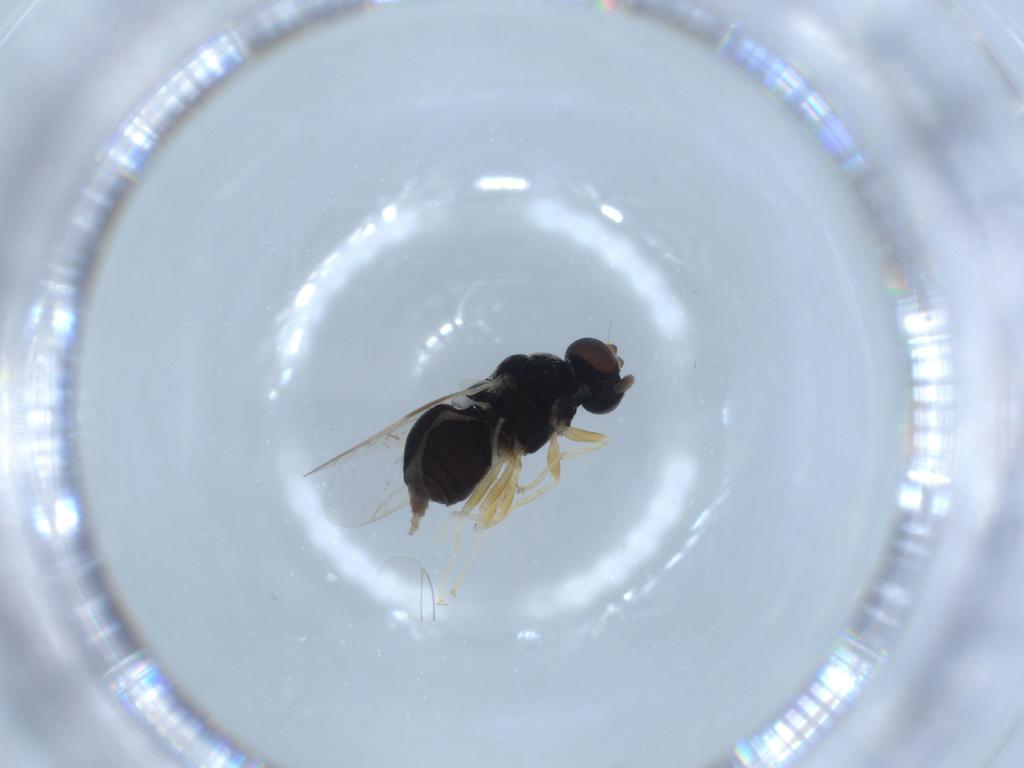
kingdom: Animalia
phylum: Arthropoda
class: Insecta
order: Diptera
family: Stratiomyidae
